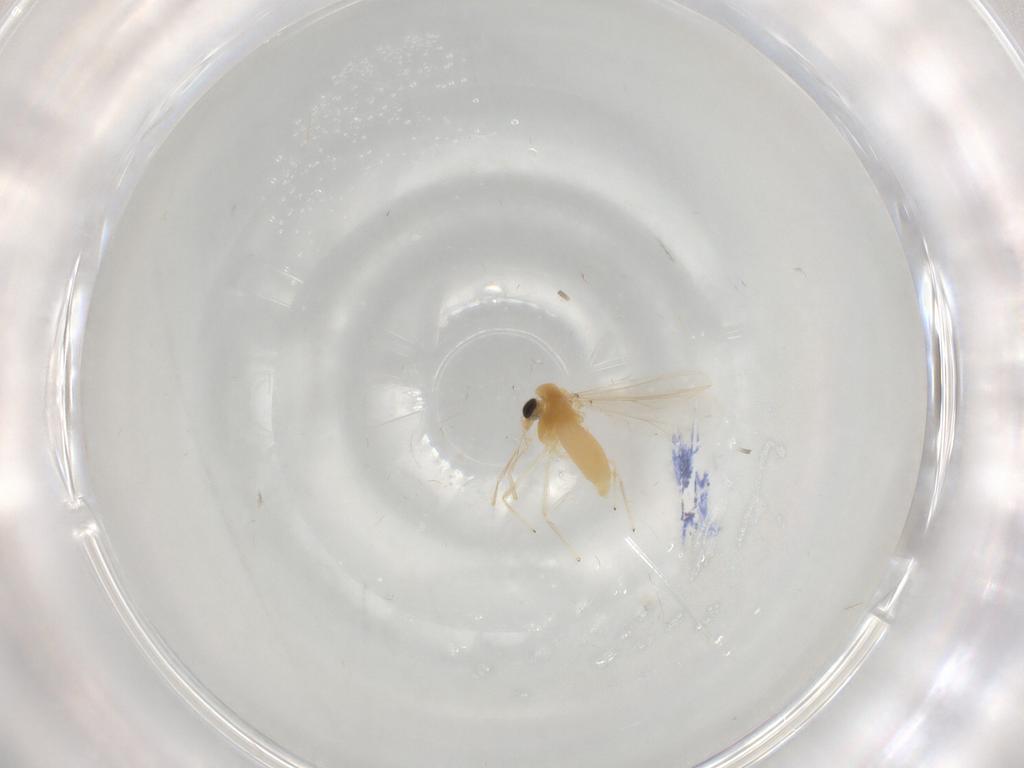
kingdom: Animalia
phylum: Arthropoda
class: Insecta
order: Diptera
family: Chironomidae
